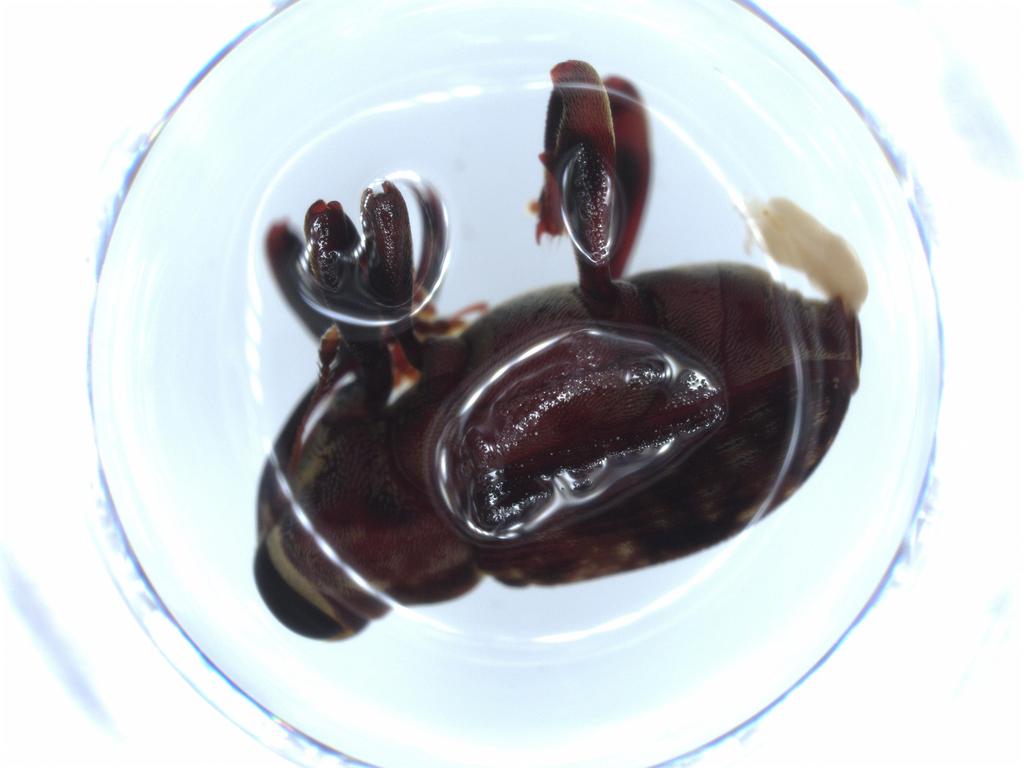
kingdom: Animalia
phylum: Arthropoda
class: Insecta
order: Coleoptera
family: Curculionidae
